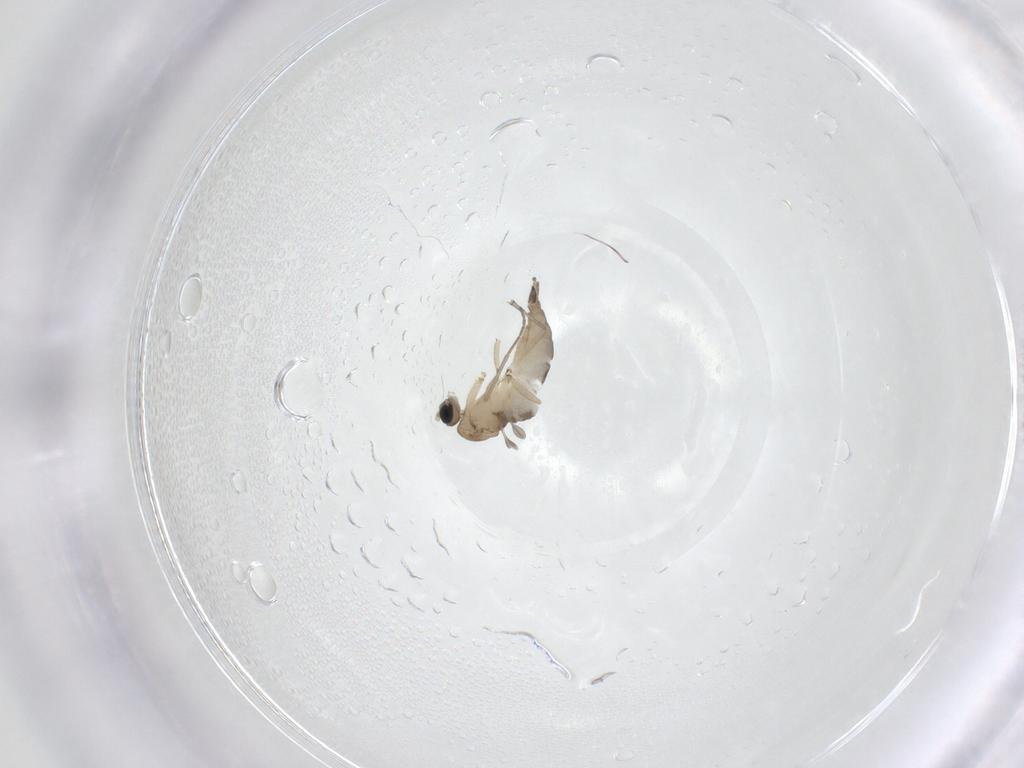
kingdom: Animalia
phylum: Arthropoda
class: Insecta
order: Diptera
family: Sciaridae
